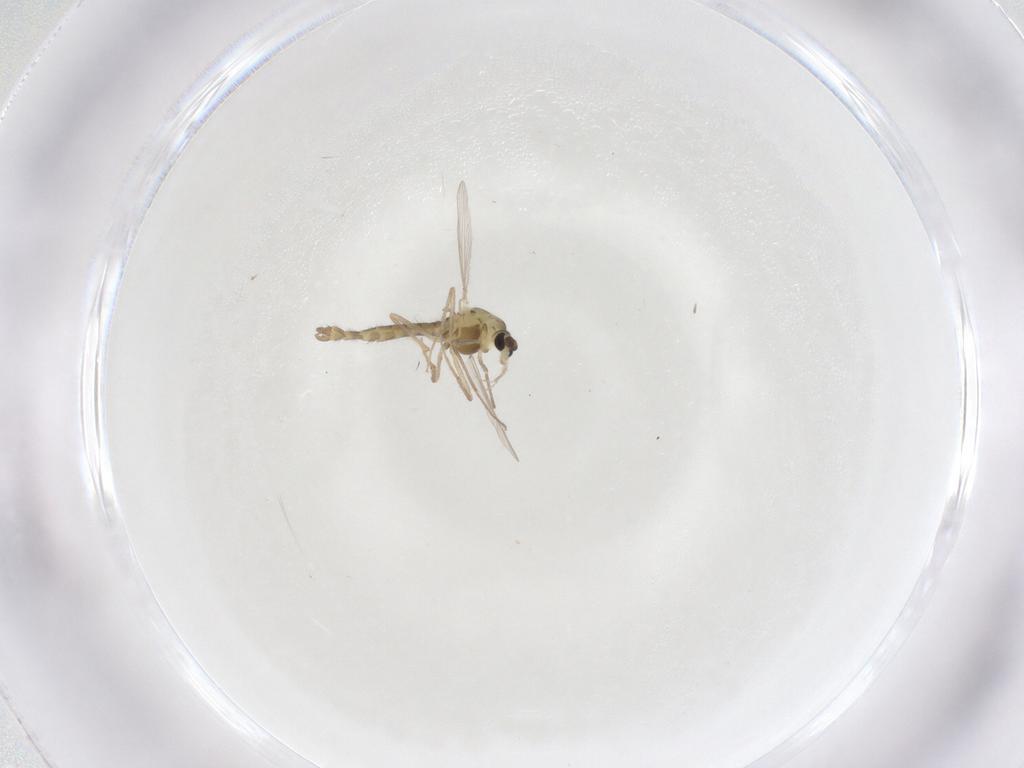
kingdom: Animalia
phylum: Arthropoda
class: Insecta
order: Diptera
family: Chironomidae
